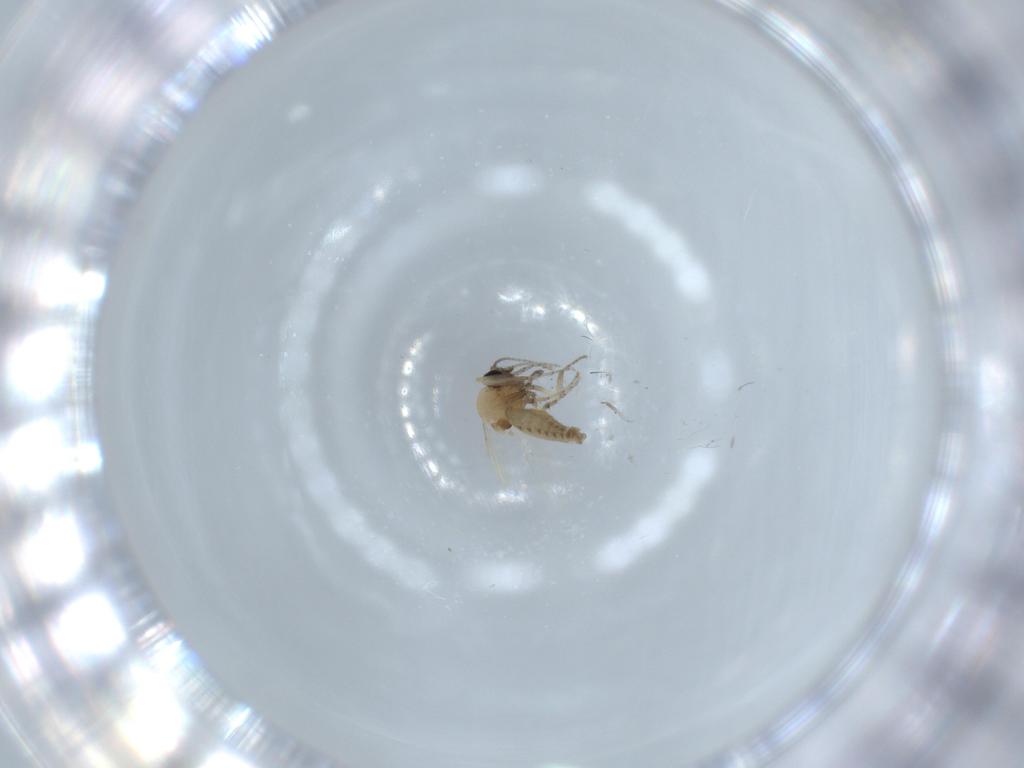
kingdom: Animalia
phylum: Arthropoda
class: Insecta
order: Diptera
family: Ceratopogonidae
